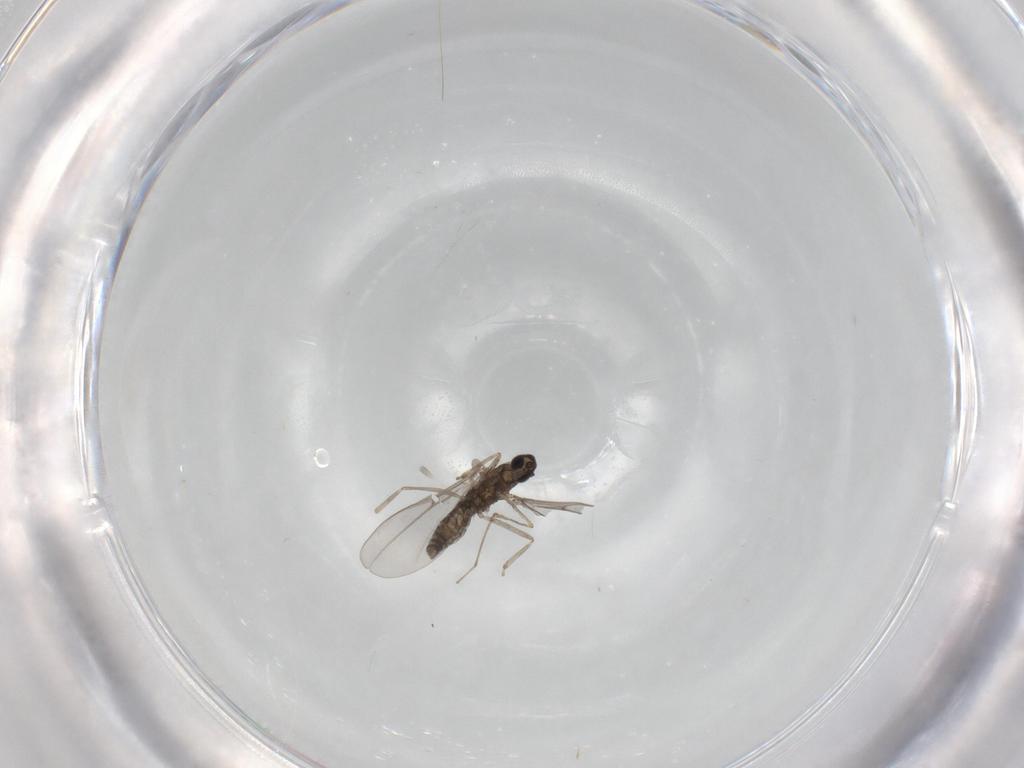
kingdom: Animalia
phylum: Arthropoda
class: Insecta
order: Diptera
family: Cecidomyiidae
